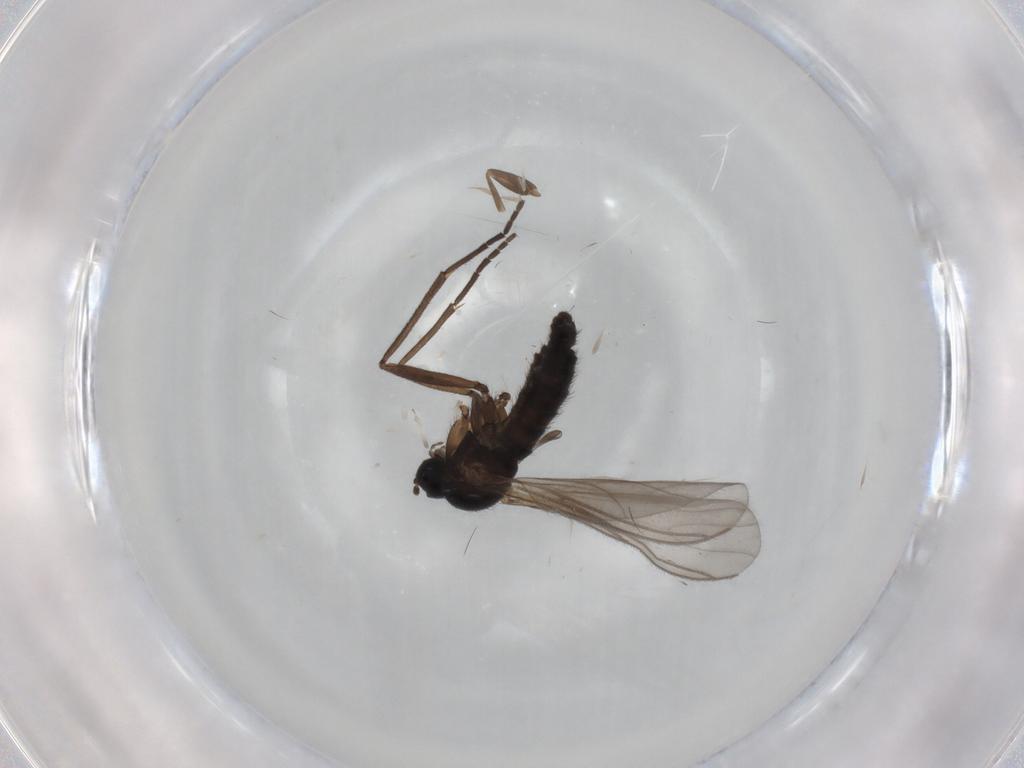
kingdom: Animalia
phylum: Arthropoda
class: Insecta
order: Diptera
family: Sciaridae
